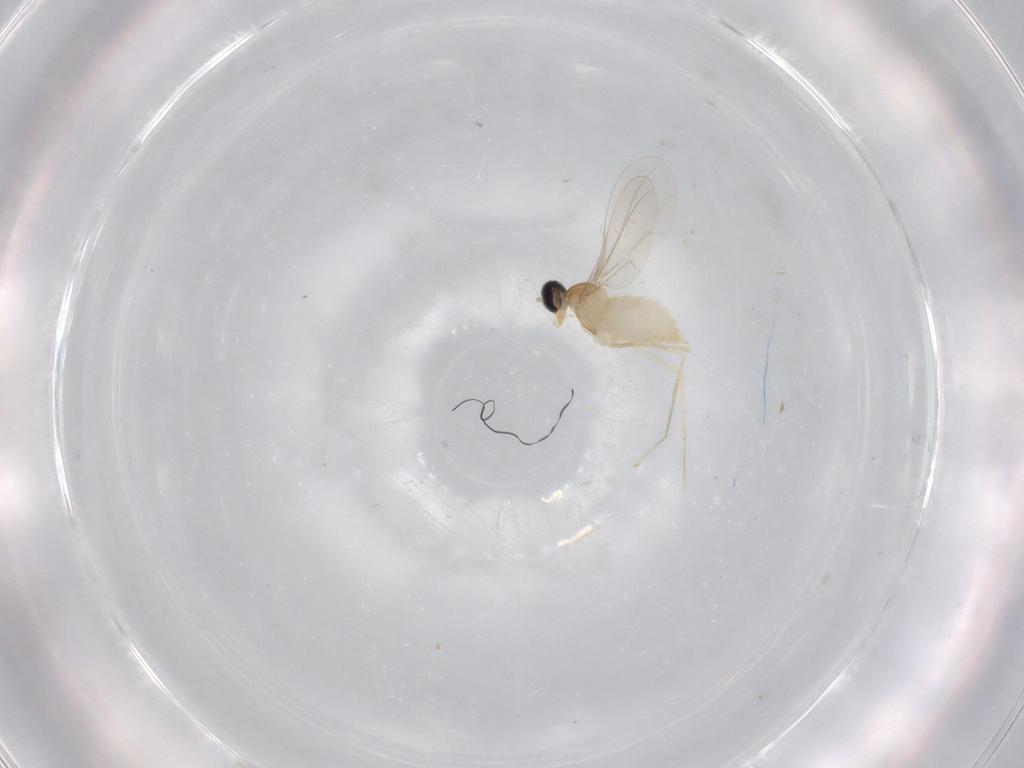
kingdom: Animalia
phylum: Arthropoda
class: Insecta
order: Diptera
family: Cecidomyiidae
